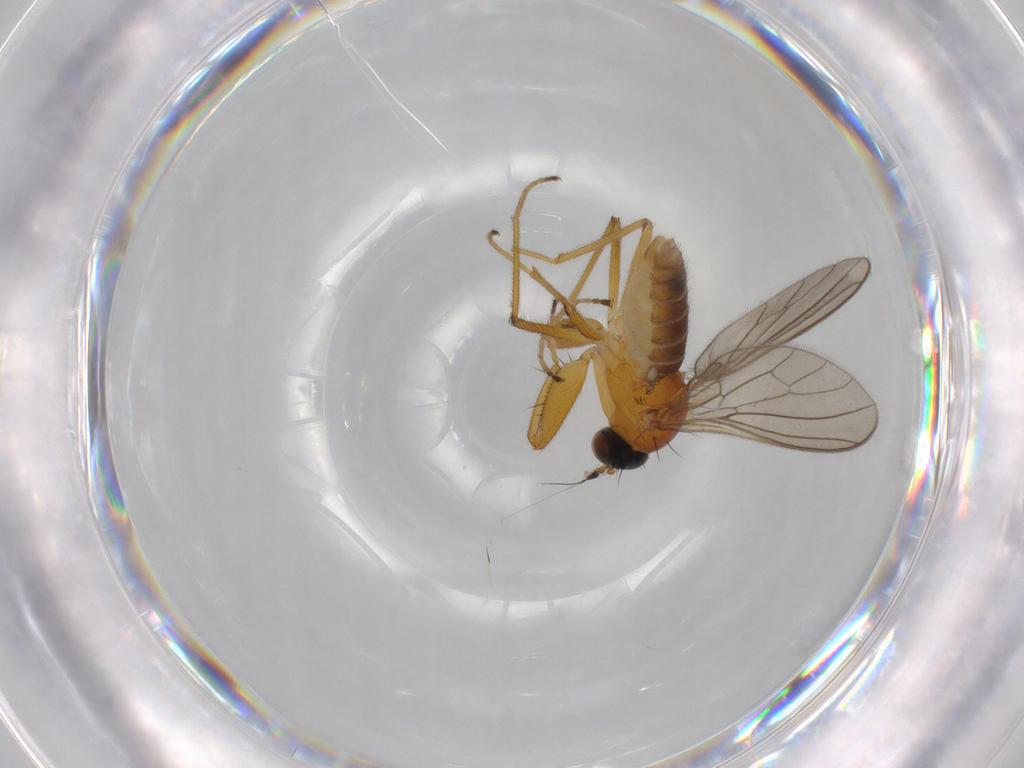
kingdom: Animalia
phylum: Arthropoda
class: Insecta
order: Diptera
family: Empididae
